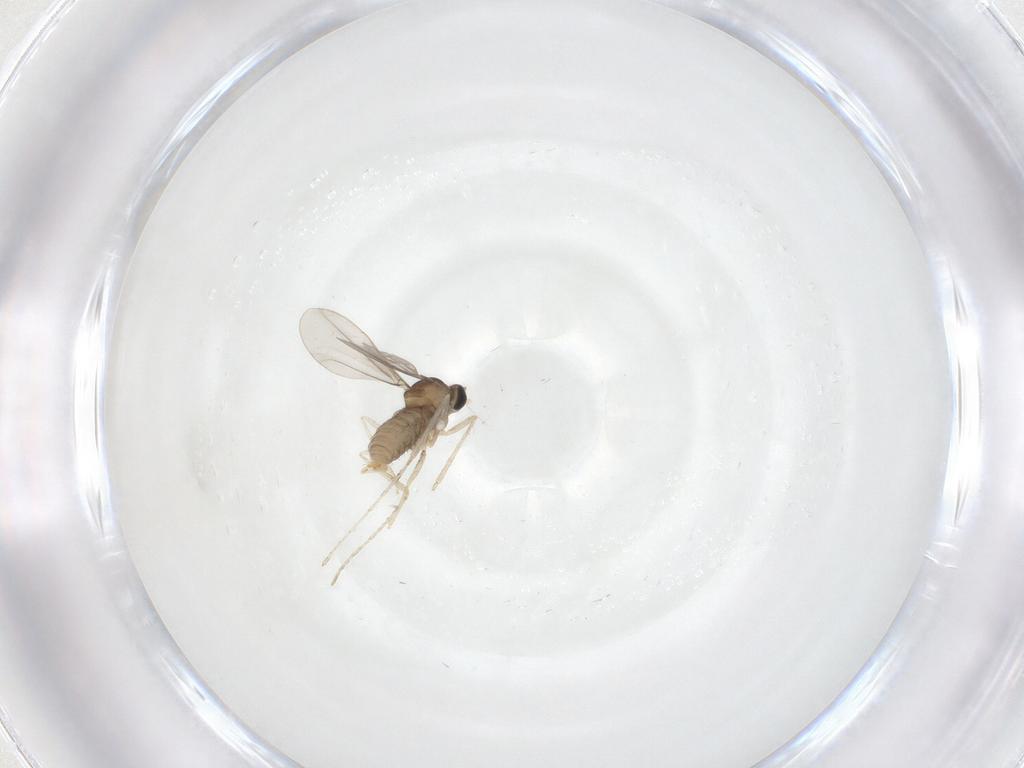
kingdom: Animalia
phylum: Arthropoda
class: Insecta
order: Diptera
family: Cecidomyiidae
